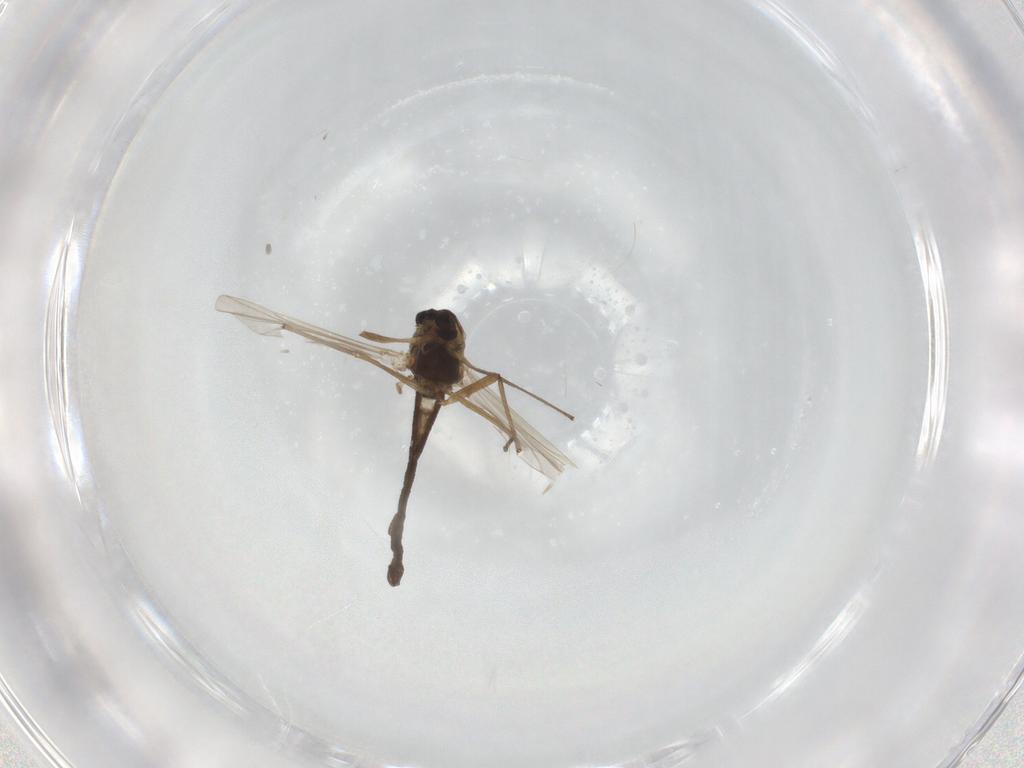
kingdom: Animalia
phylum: Arthropoda
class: Insecta
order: Diptera
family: Chironomidae
